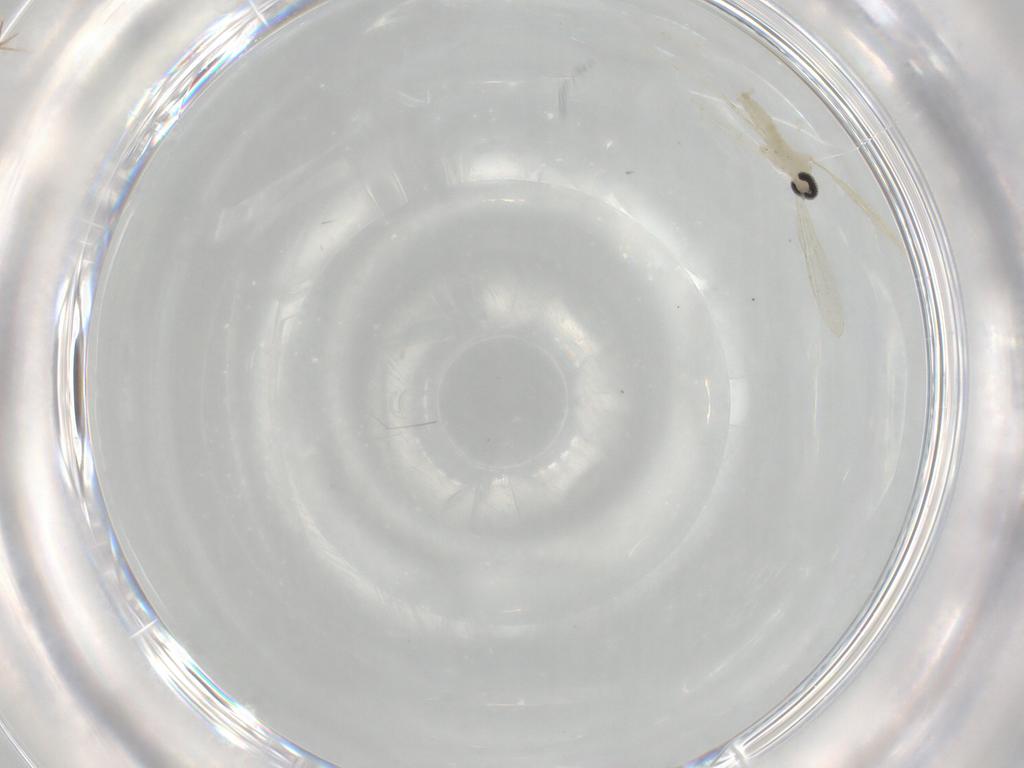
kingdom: Animalia
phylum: Arthropoda
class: Insecta
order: Diptera
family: Cecidomyiidae
